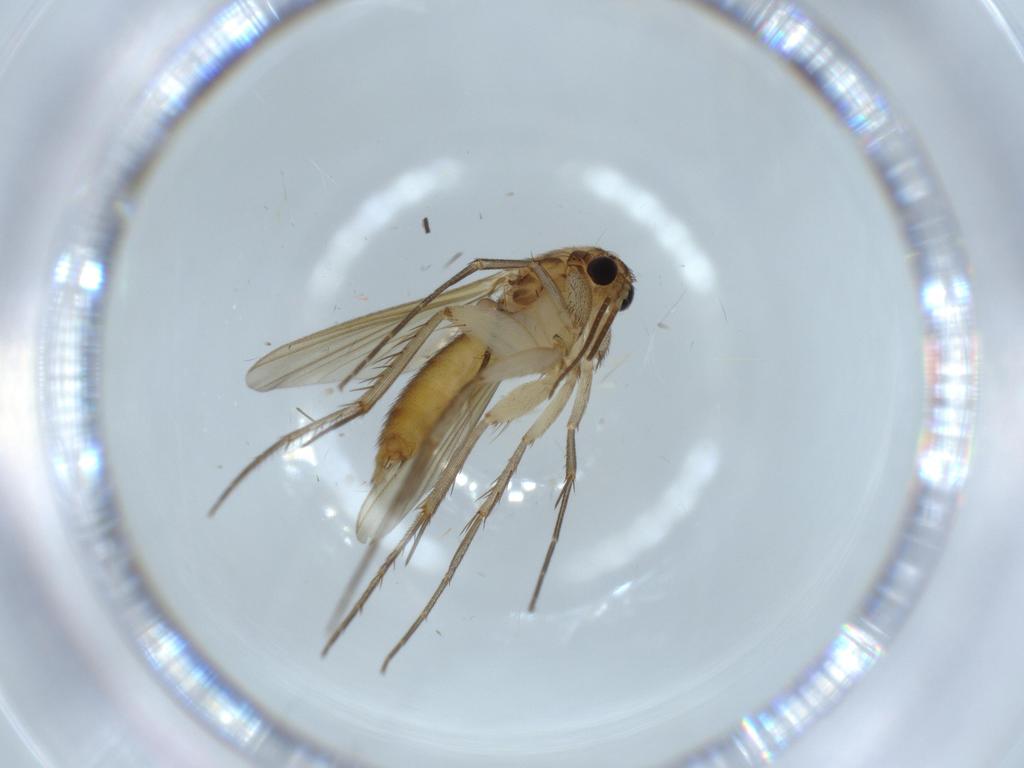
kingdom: Animalia
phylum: Arthropoda
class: Insecta
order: Diptera
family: Cecidomyiidae
